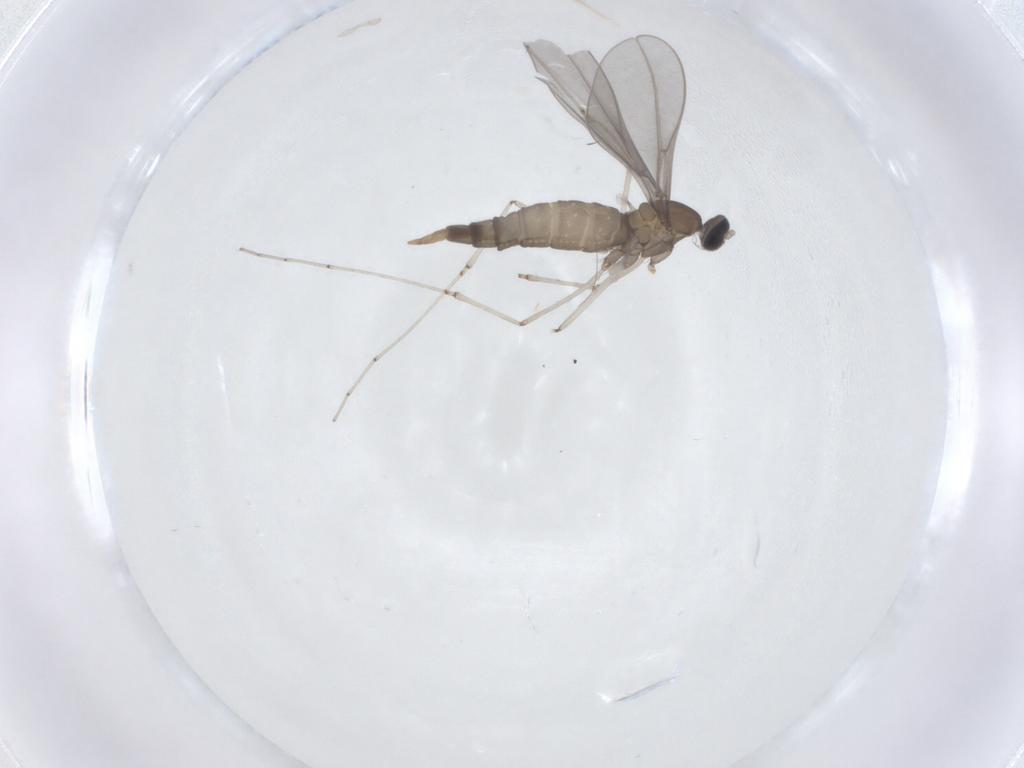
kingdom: Animalia
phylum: Arthropoda
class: Insecta
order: Diptera
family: Cecidomyiidae
